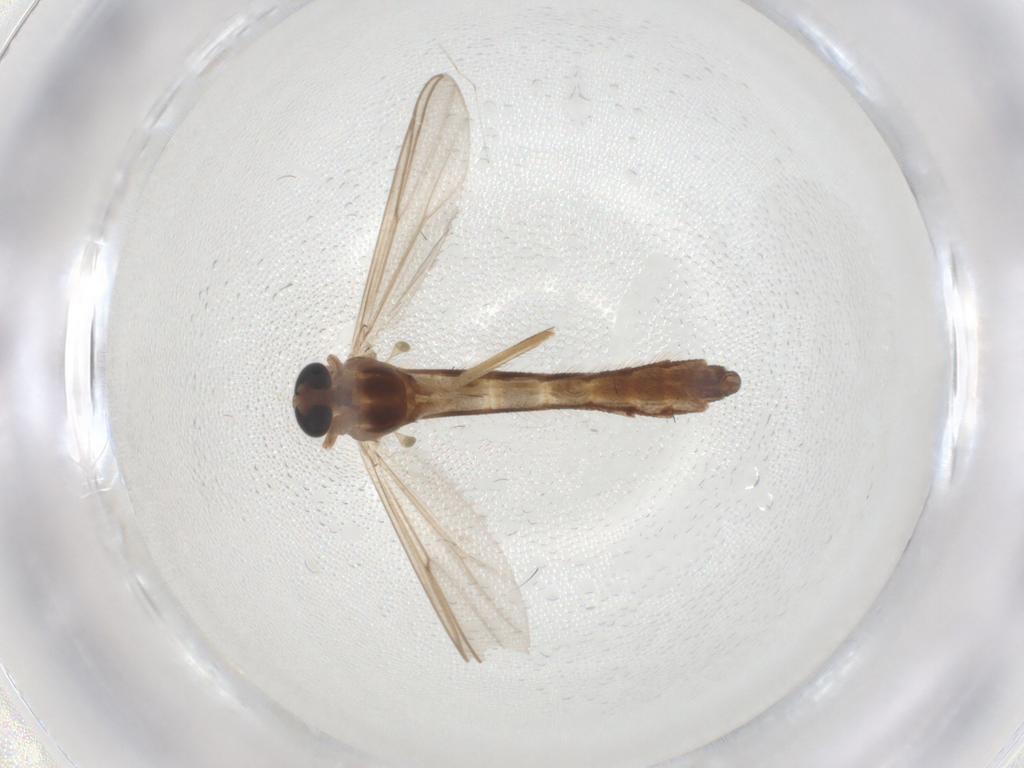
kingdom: Animalia
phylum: Arthropoda
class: Insecta
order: Diptera
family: Chironomidae
